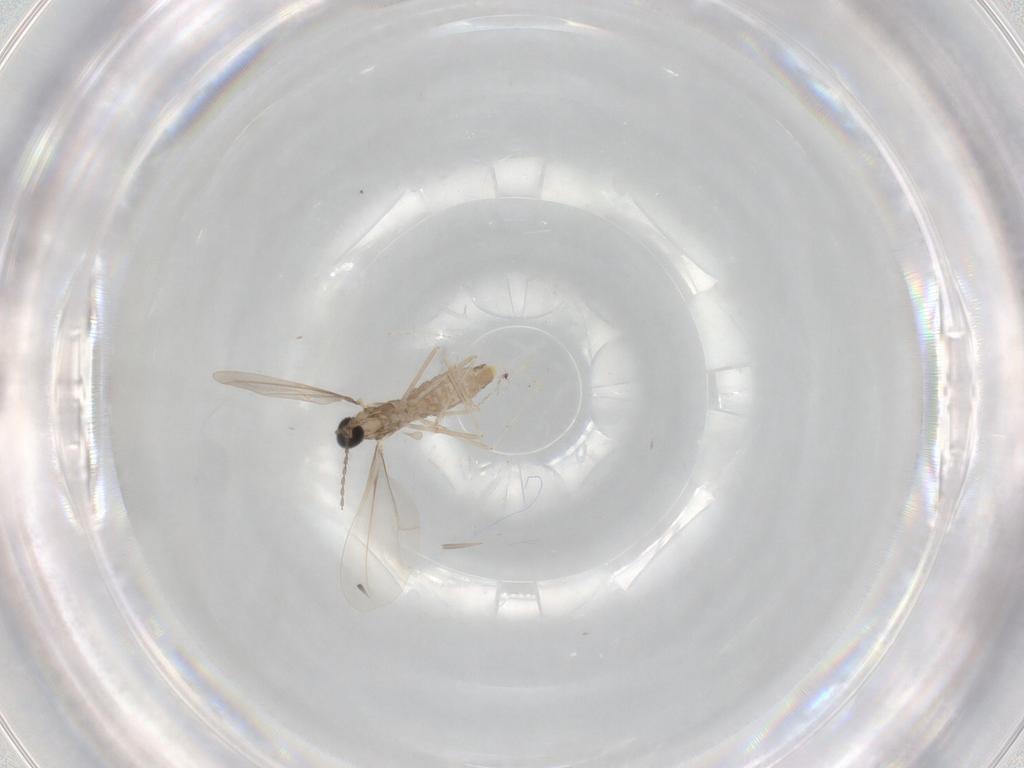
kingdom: Animalia
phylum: Arthropoda
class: Insecta
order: Diptera
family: Cecidomyiidae
